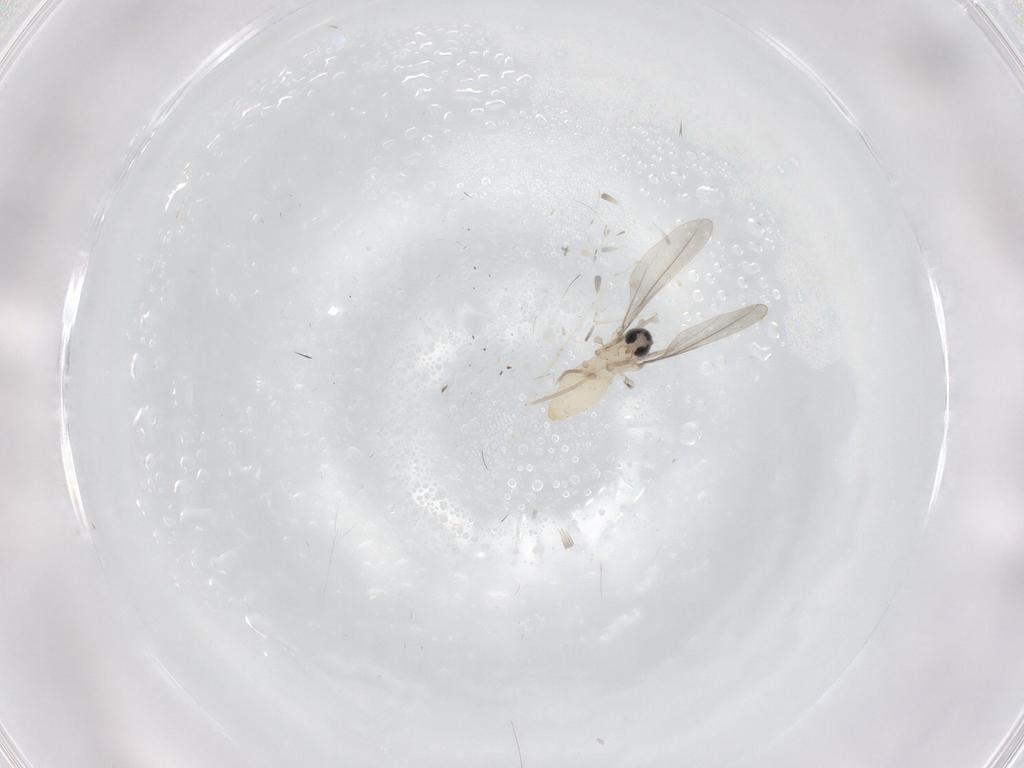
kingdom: Animalia
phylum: Arthropoda
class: Insecta
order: Diptera
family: Cecidomyiidae
